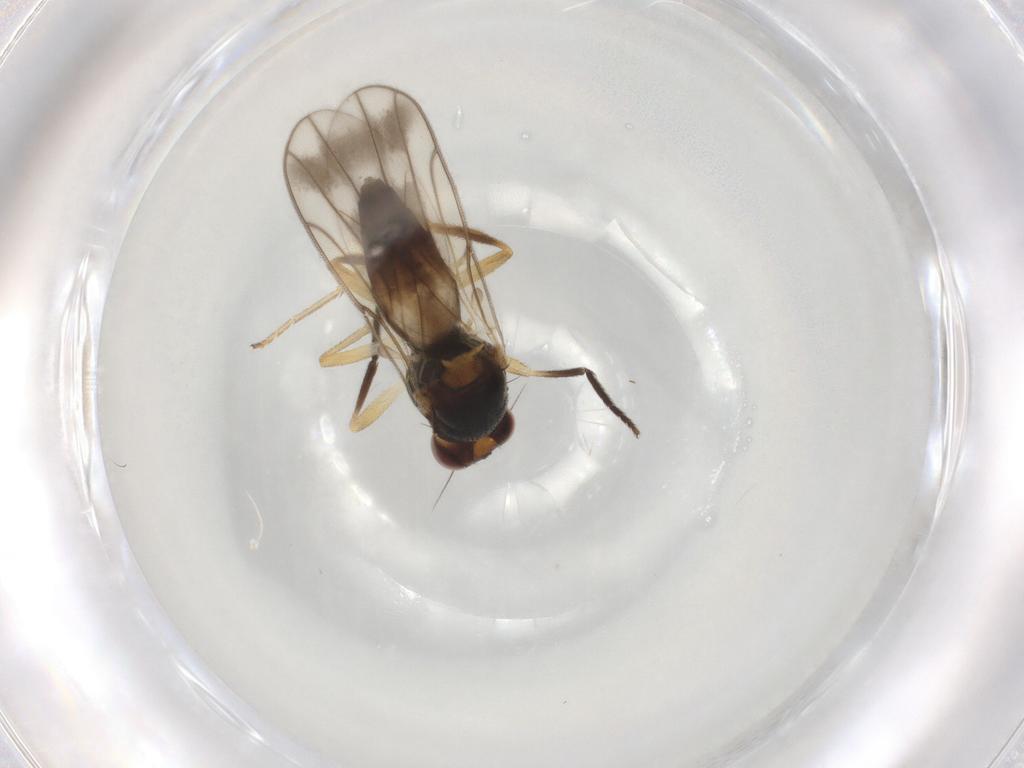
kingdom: Animalia
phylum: Arthropoda
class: Insecta
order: Diptera
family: Chloropidae
